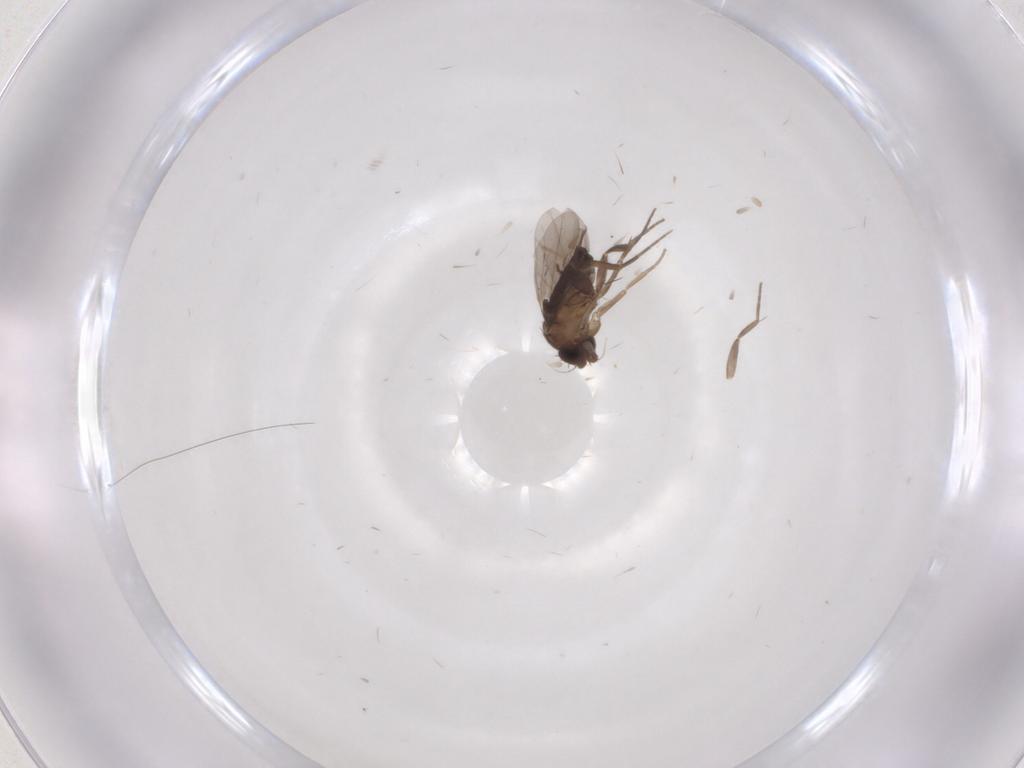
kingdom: Animalia
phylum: Arthropoda
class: Insecta
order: Diptera
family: Phoridae
